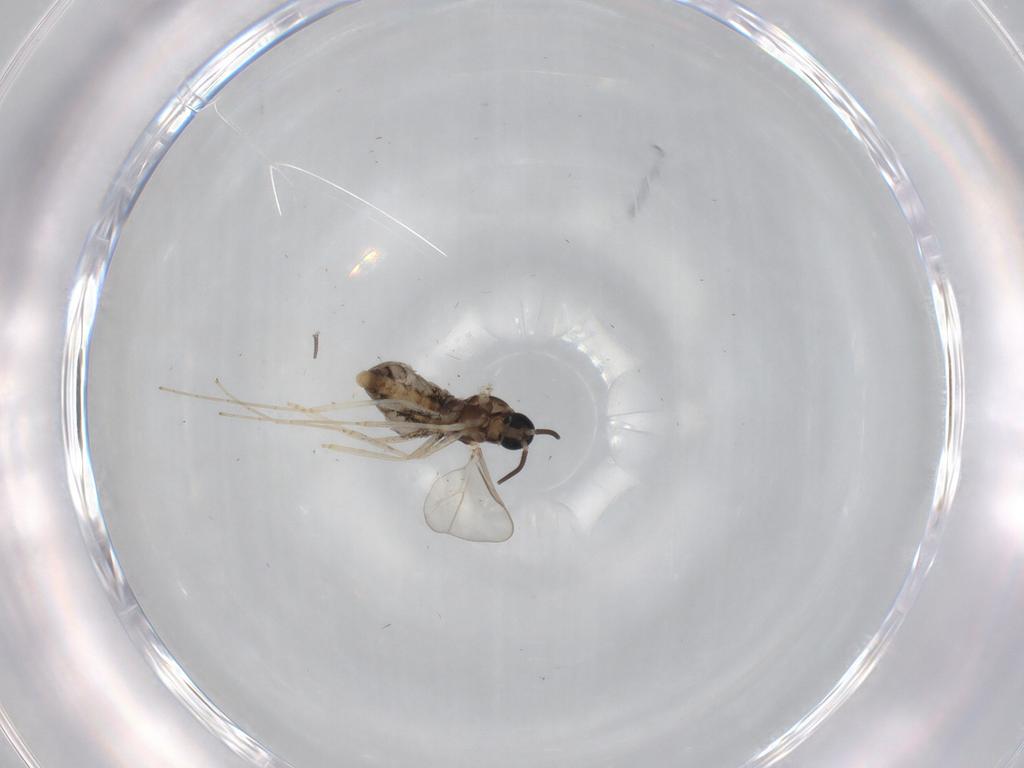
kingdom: Animalia
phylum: Arthropoda
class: Insecta
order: Diptera
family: Cecidomyiidae
